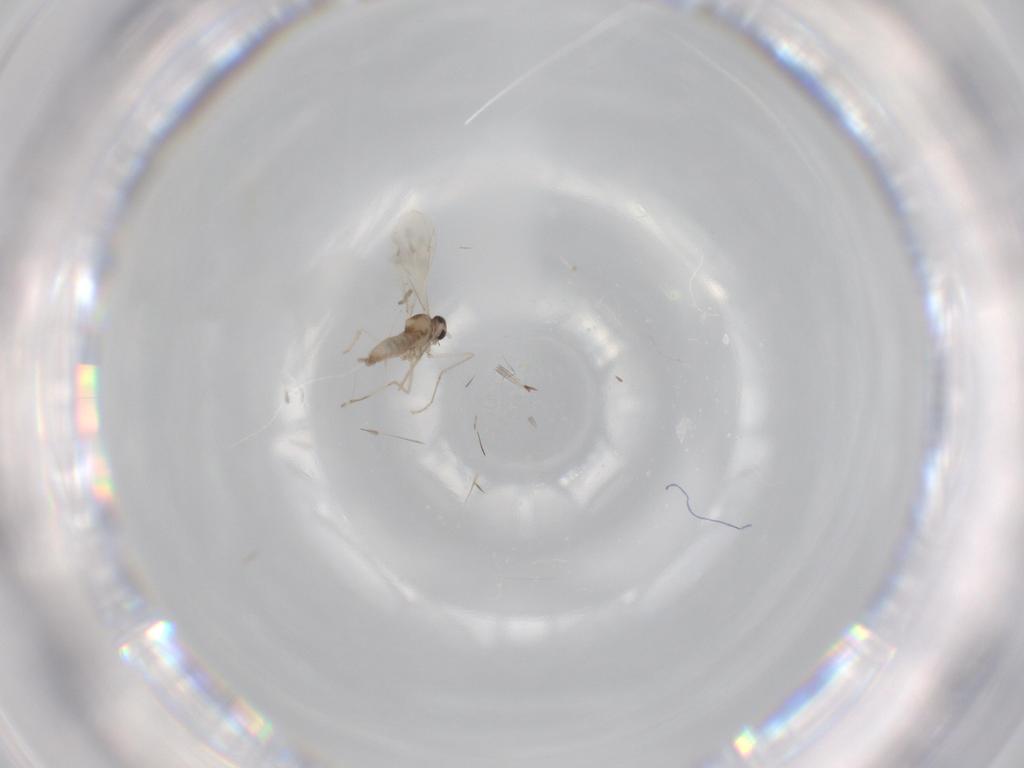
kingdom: Animalia
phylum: Arthropoda
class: Insecta
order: Diptera
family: Cecidomyiidae
